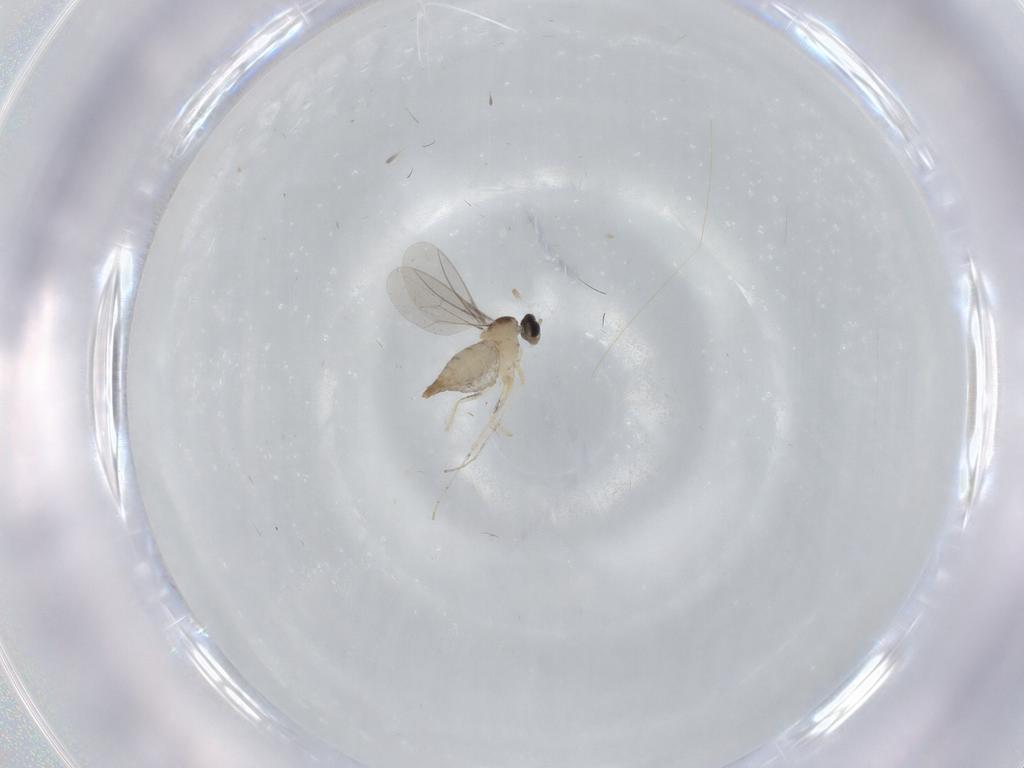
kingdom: Animalia
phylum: Arthropoda
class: Insecta
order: Diptera
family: Cecidomyiidae
